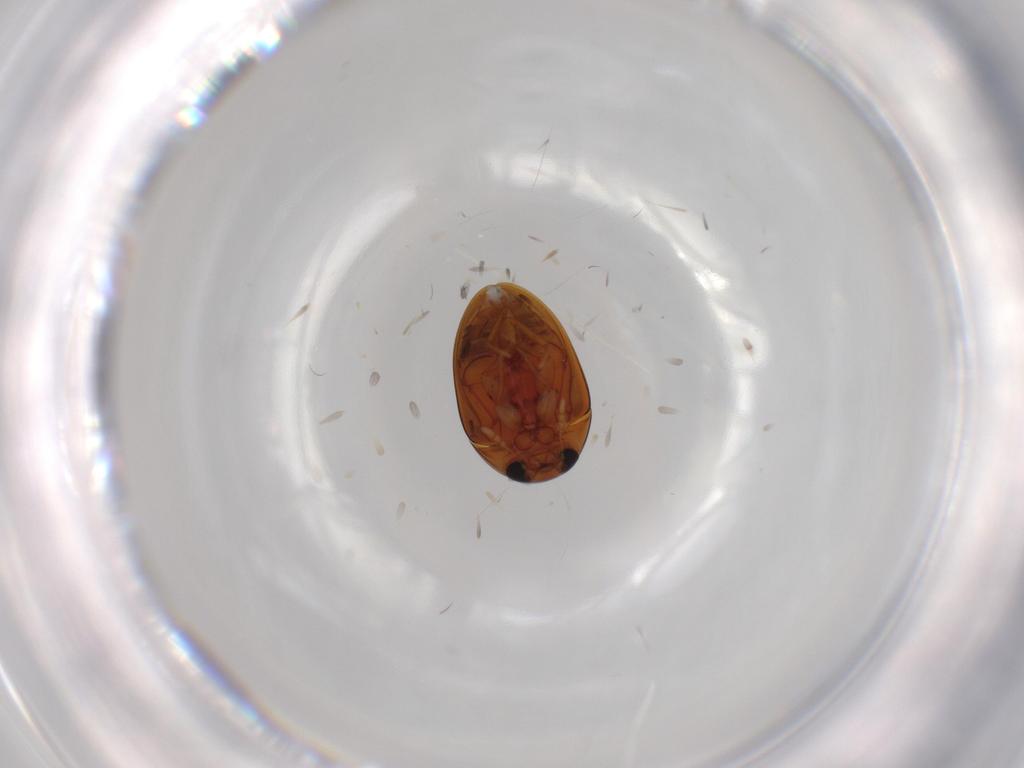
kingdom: Animalia
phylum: Arthropoda
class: Insecta
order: Coleoptera
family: Phalacridae
